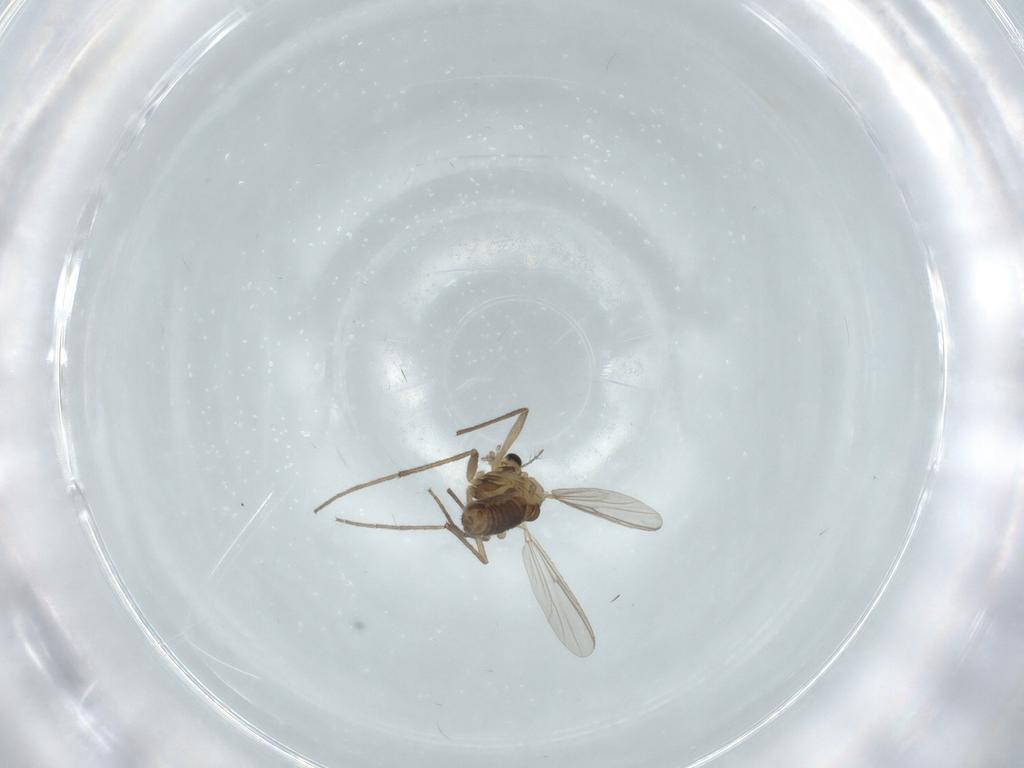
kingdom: Animalia
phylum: Arthropoda
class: Insecta
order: Diptera
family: Chironomidae
